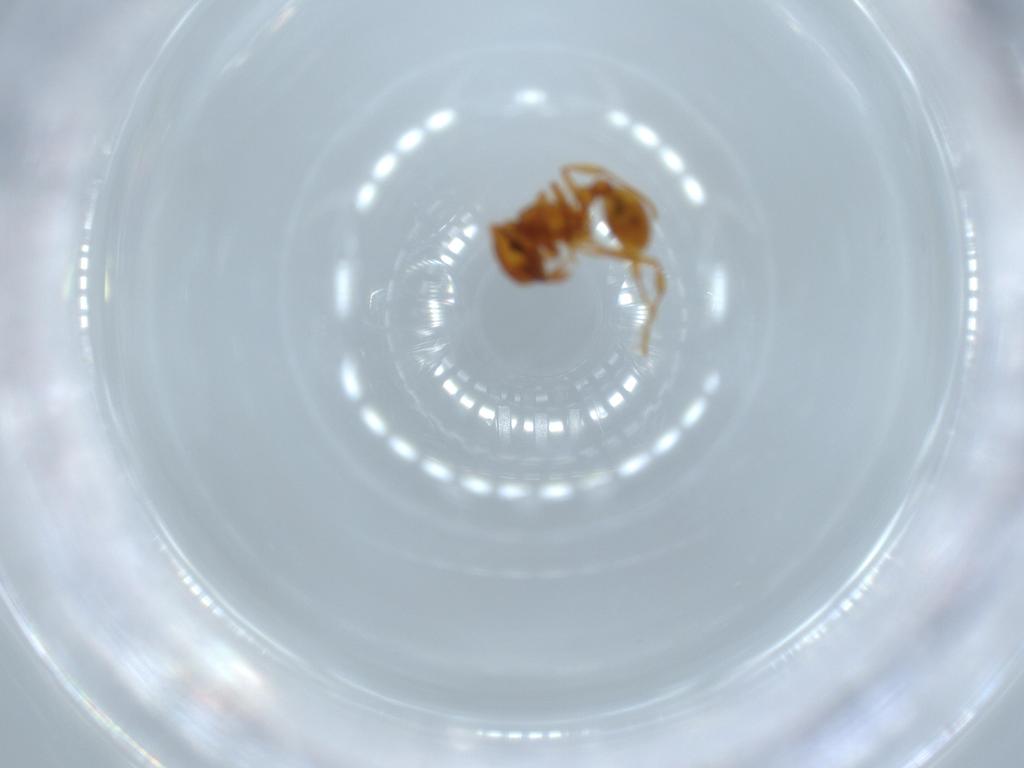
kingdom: Animalia
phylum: Arthropoda
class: Insecta
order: Hymenoptera
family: Formicidae
